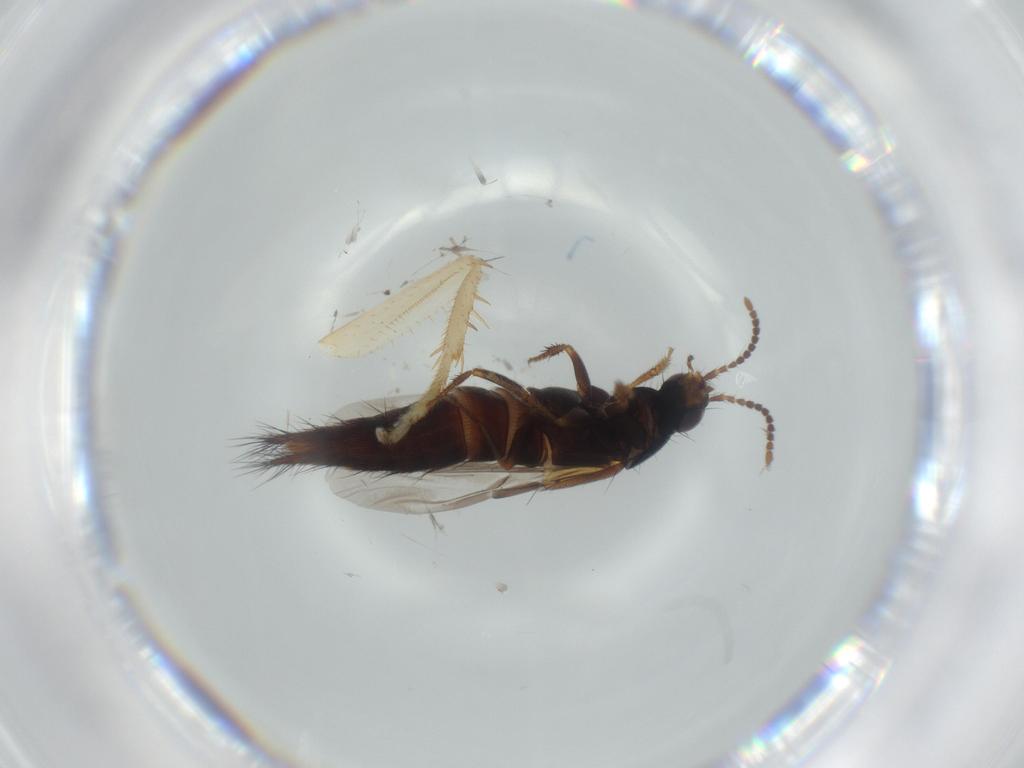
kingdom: Animalia
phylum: Arthropoda
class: Insecta
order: Coleoptera
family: Staphylinidae
